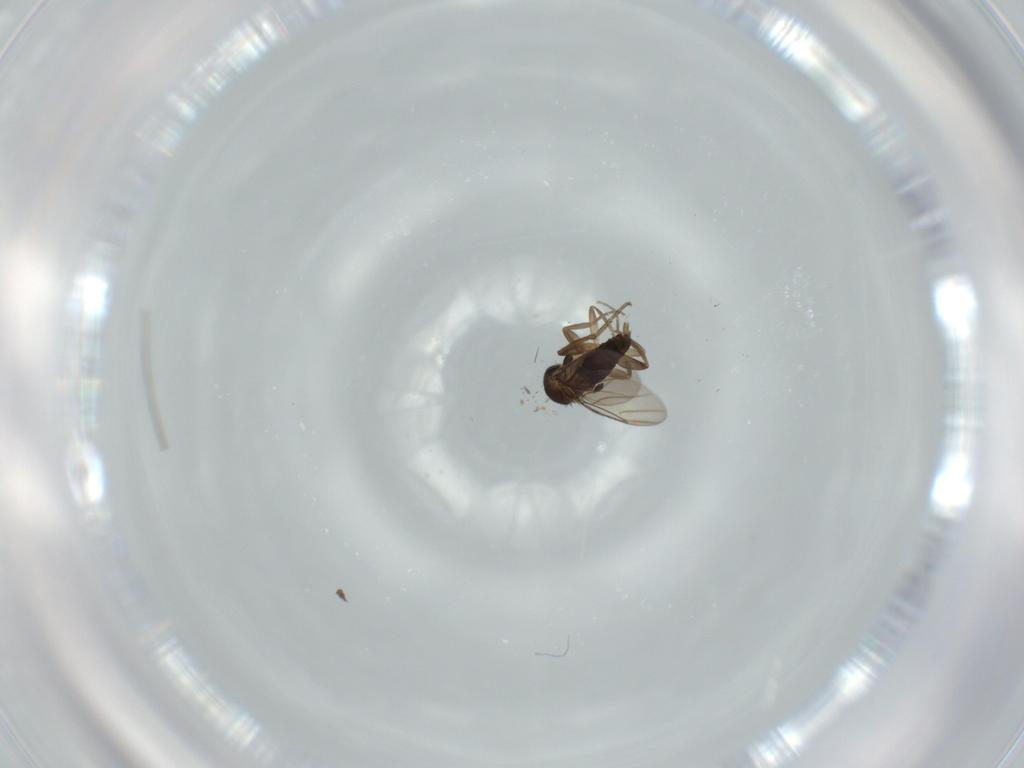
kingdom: Animalia
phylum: Arthropoda
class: Insecta
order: Diptera
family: Phoridae
